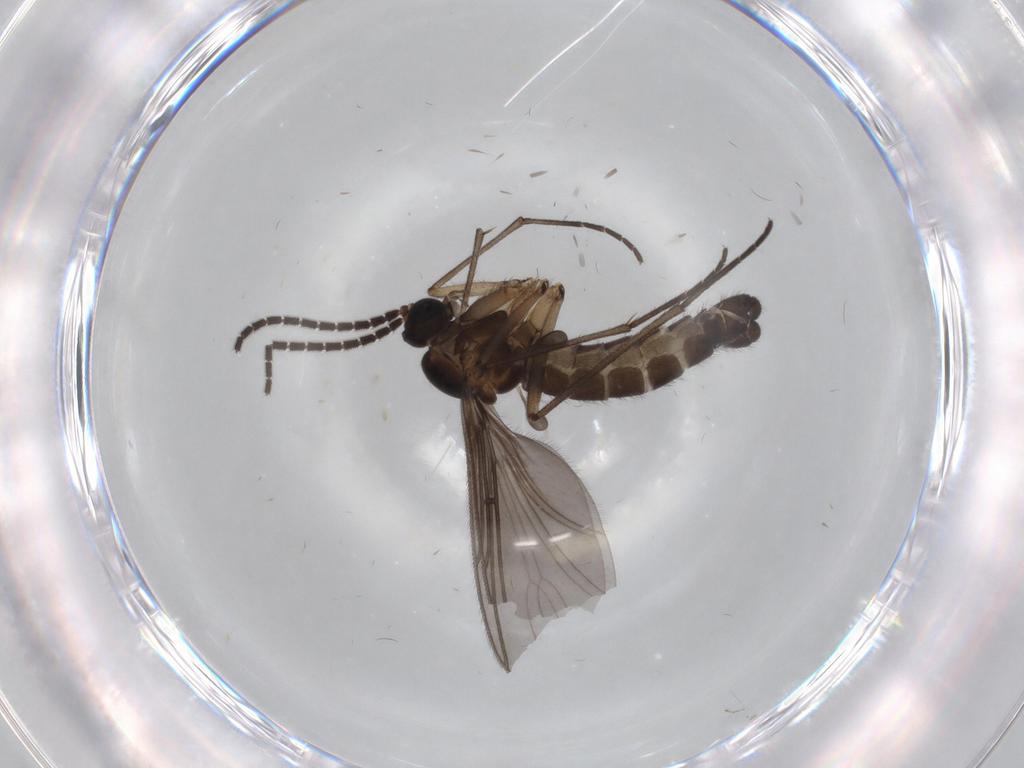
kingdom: Animalia
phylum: Arthropoda
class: Insecta
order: Diptera
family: Sciaridae
